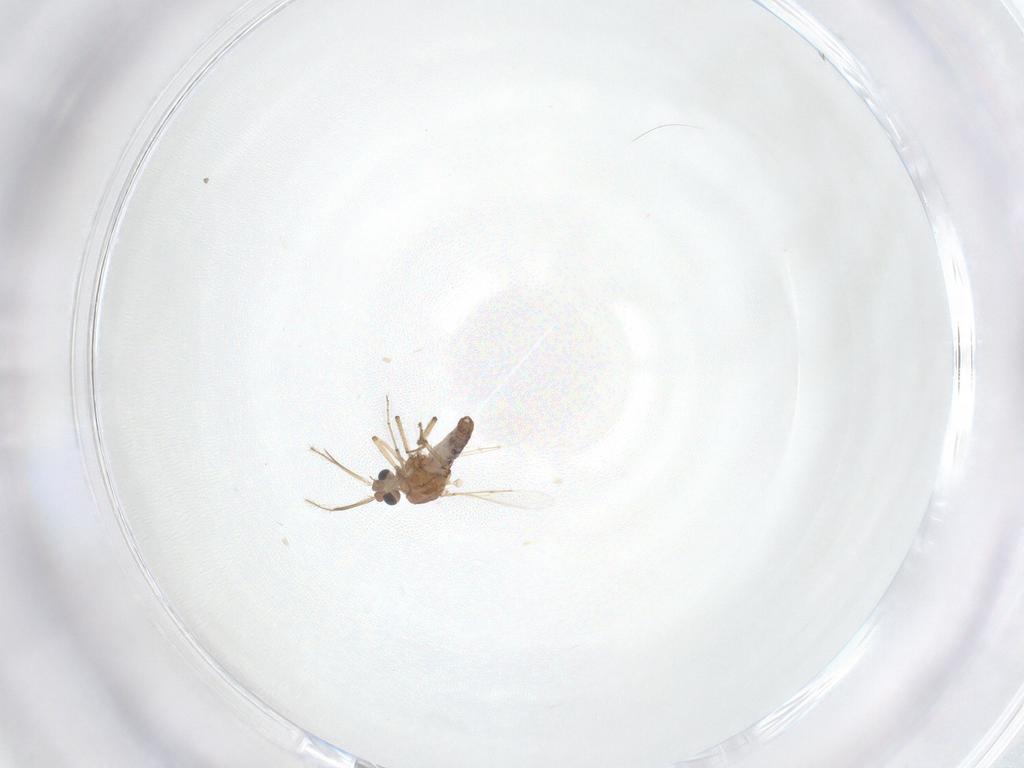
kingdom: Animalia
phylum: Arthropoda
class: Insecta
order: Diptera
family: Ceratopogonidae
